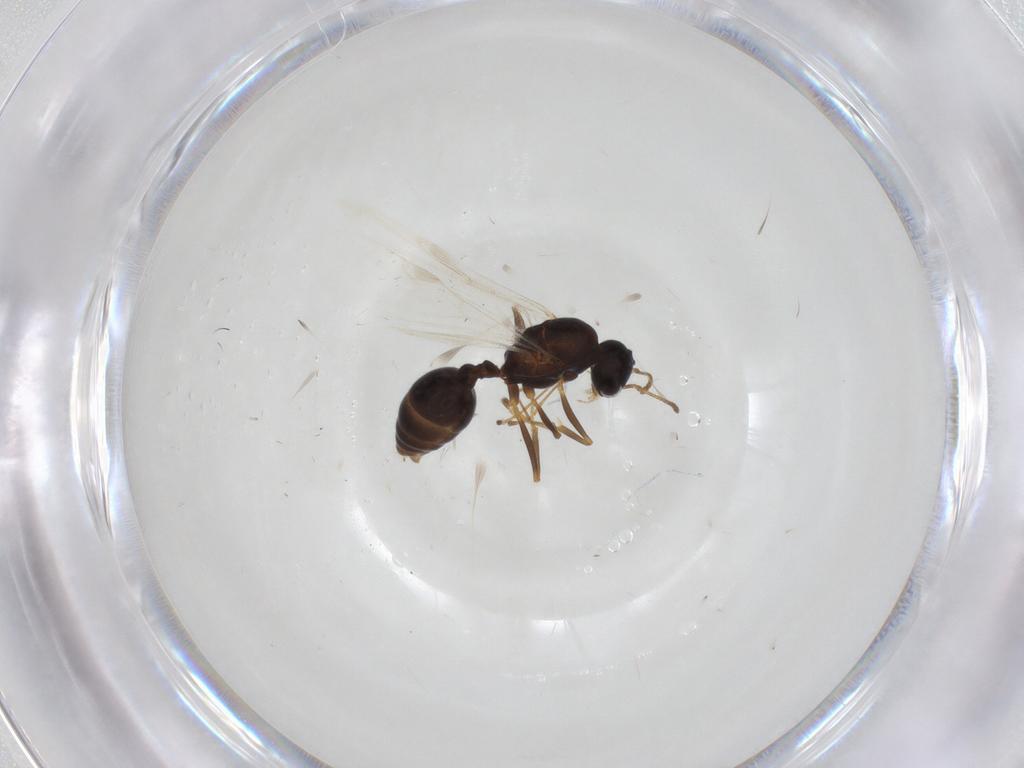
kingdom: Animalia
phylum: Arthropoda
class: Insecta
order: Hymenoptera
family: Formicidae
